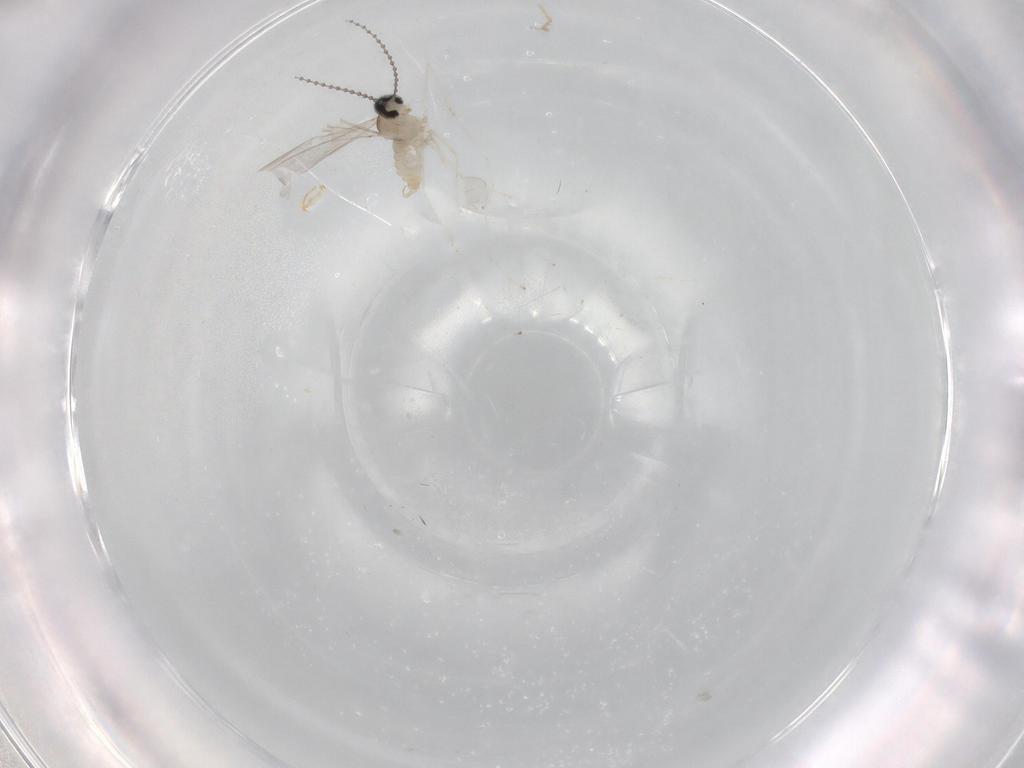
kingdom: Animalia
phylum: Arthropoda
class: Insecta
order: Diptera
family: Cecidomyiidae
